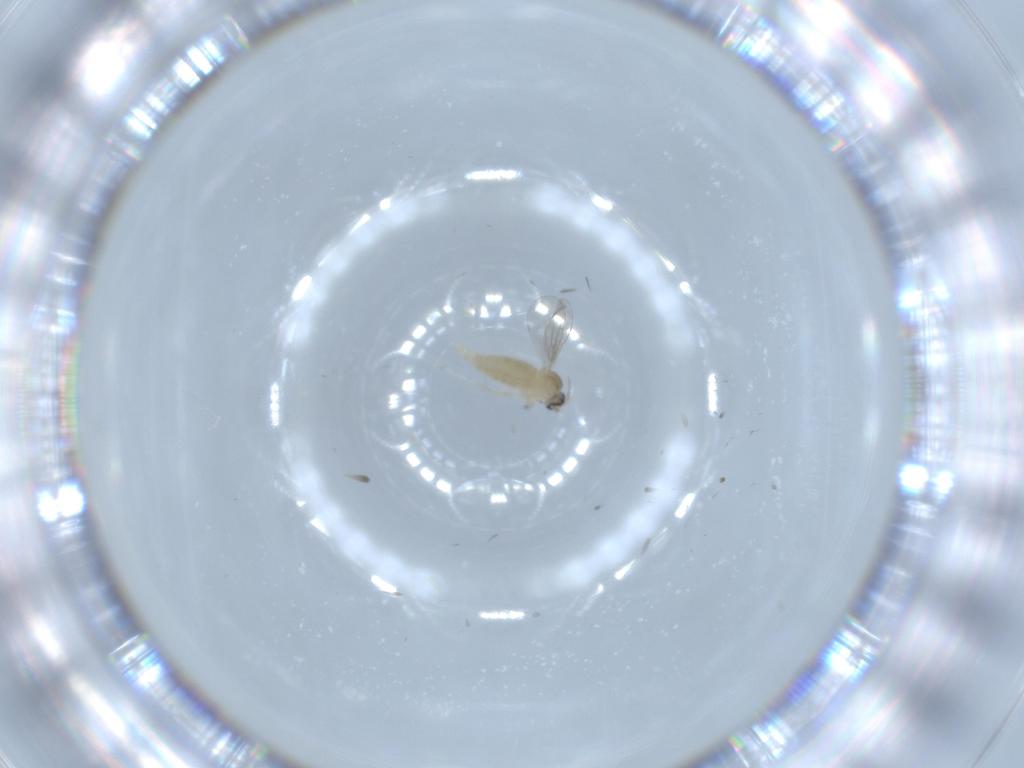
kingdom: Animalia
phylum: Arthropoda
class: Insecta
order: Diptera
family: Cecidomyiidae
